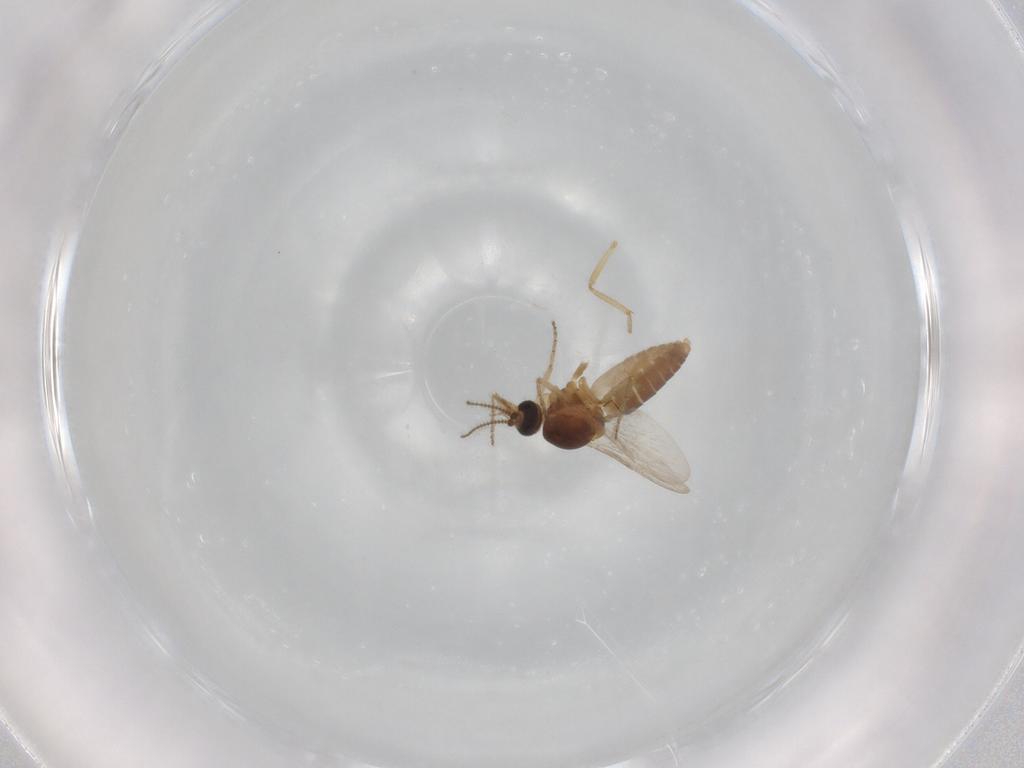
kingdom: Animalia
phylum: Arthropoda
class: Insecta
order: Diptera
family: Ceratopogonidae
